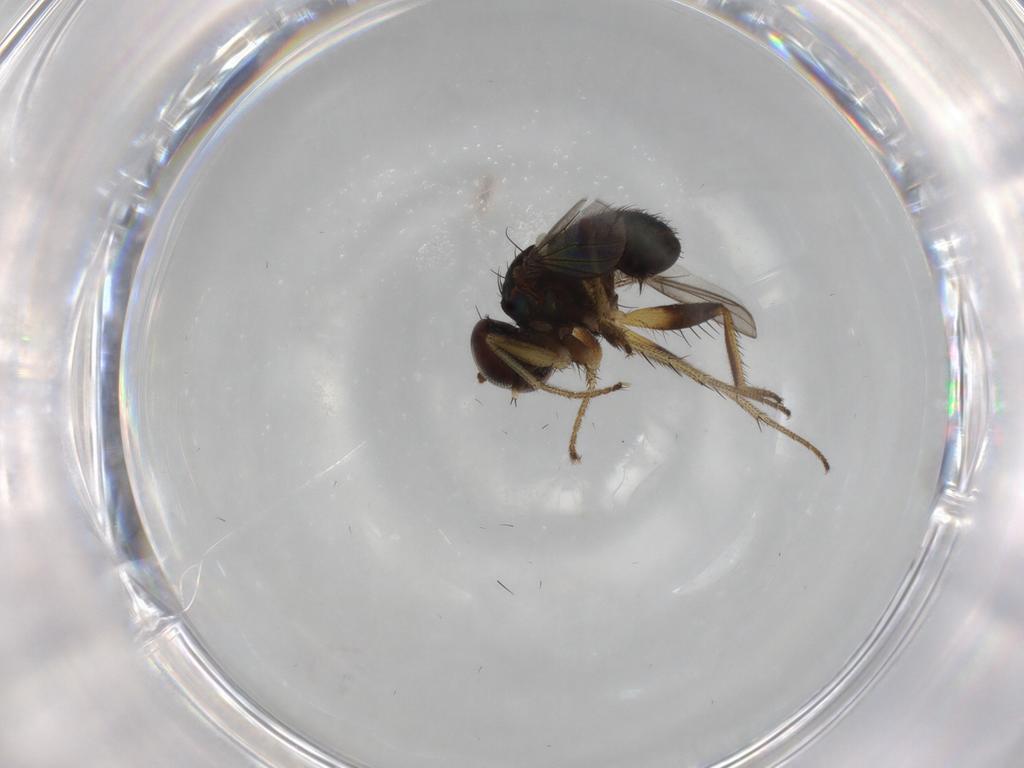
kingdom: Animalia
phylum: Arthropoda
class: Insecta
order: Diptera
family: Dolichopodidae
